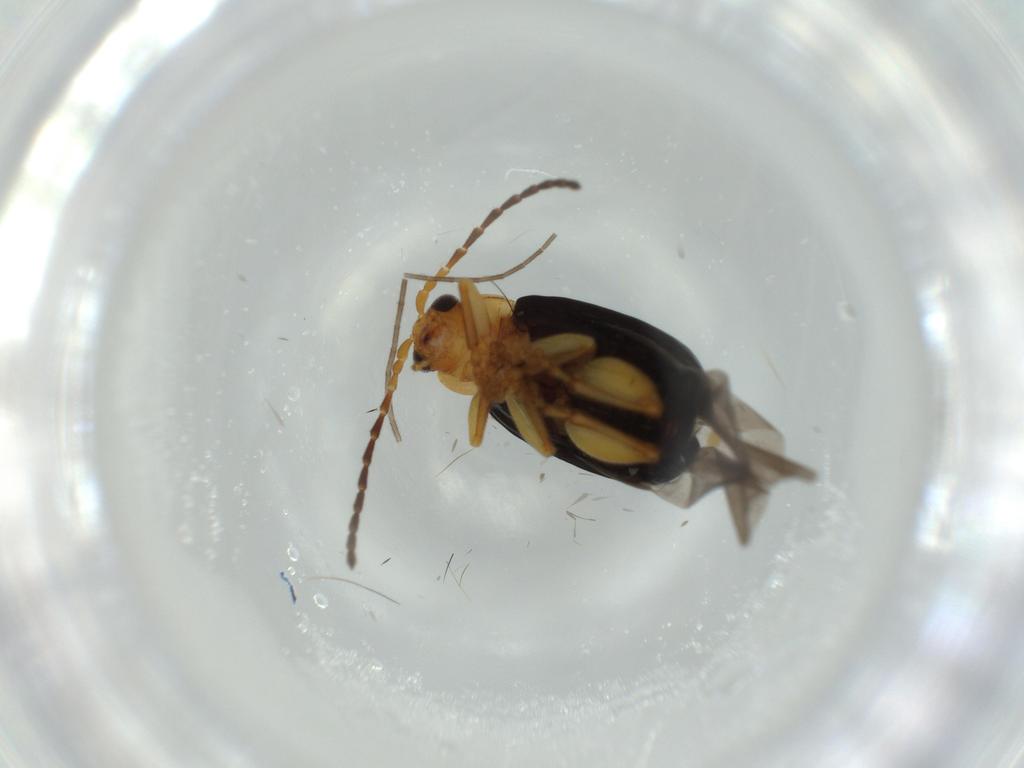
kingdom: Animalia
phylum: Arthropoda
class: Insecta
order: Coleoptera
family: Chrysomelidae
